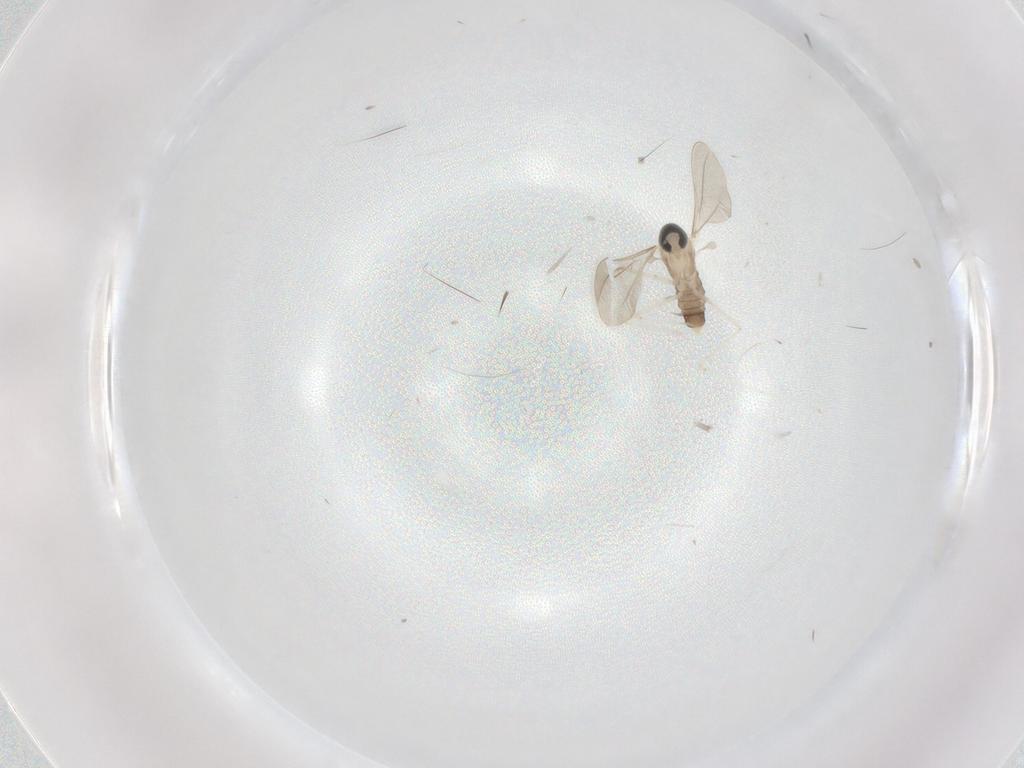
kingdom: Animalia
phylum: Arthropoda
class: Insecta
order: Diptera
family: Cecidomyiidae
